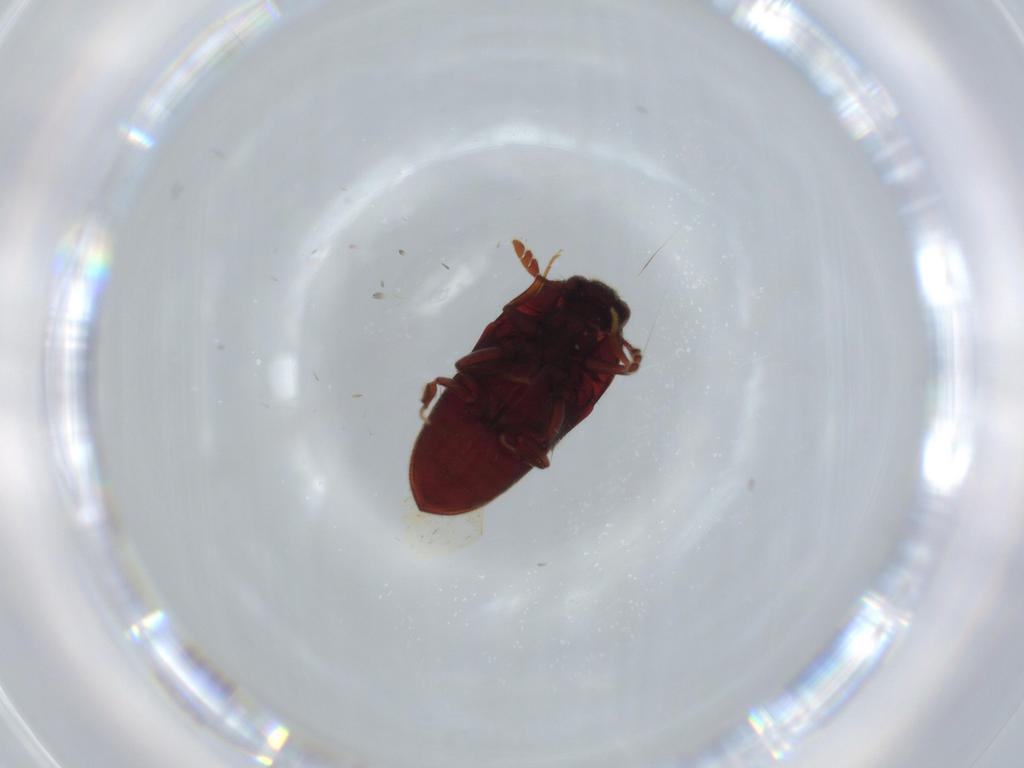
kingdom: Animalia
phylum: Arthropoda
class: Insecta
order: Coleoptera
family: Throscidae
